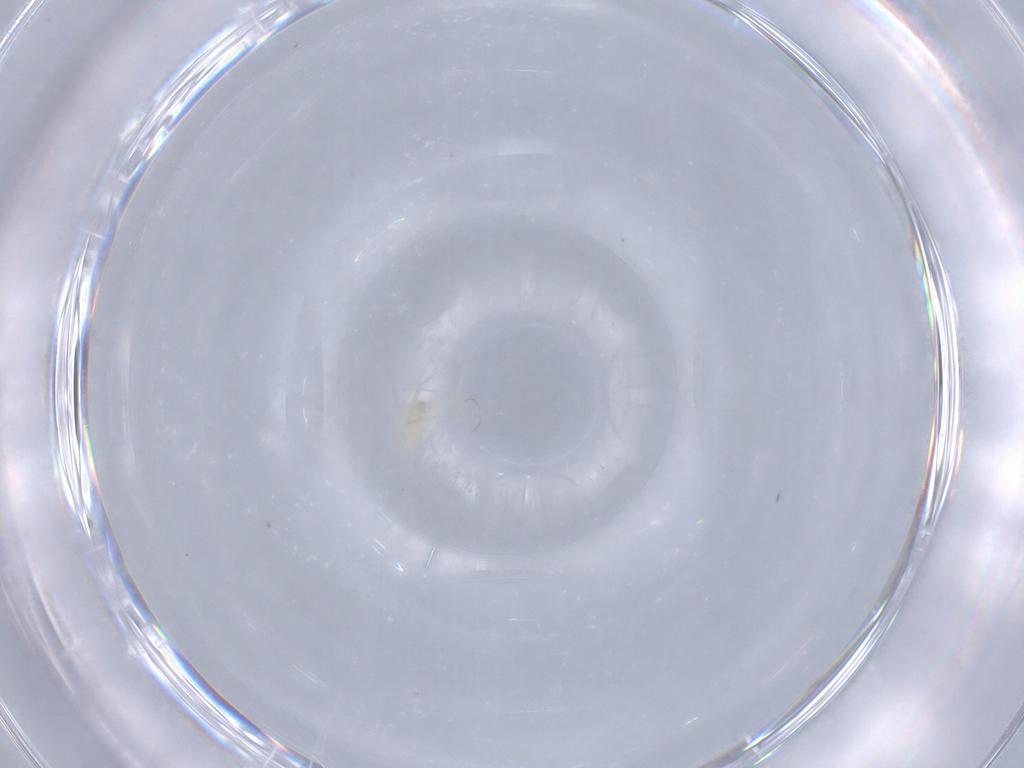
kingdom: Animalia
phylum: Arthropoda
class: Arachnida
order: Trombidiformes
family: Erythraeidae
